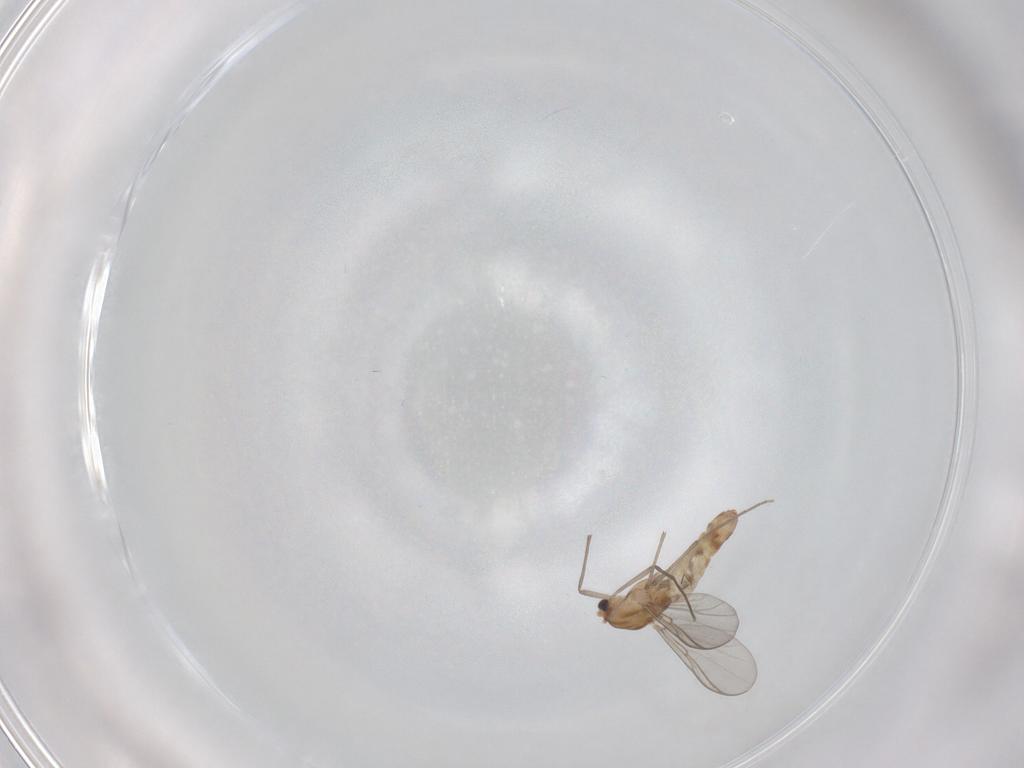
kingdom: Animalia
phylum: Arthropoda
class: Insecta
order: Diptera
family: Chironomidae
